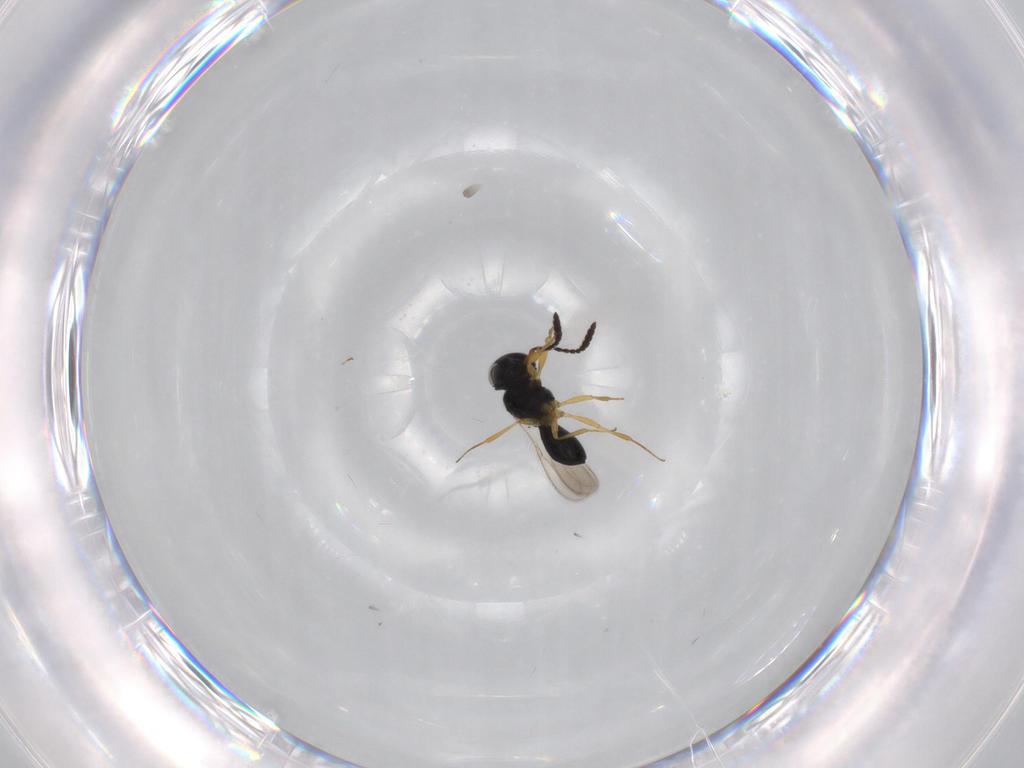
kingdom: Animalia
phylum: Arthropoda
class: Insecta
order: Hymenoptera
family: Scelionidae
